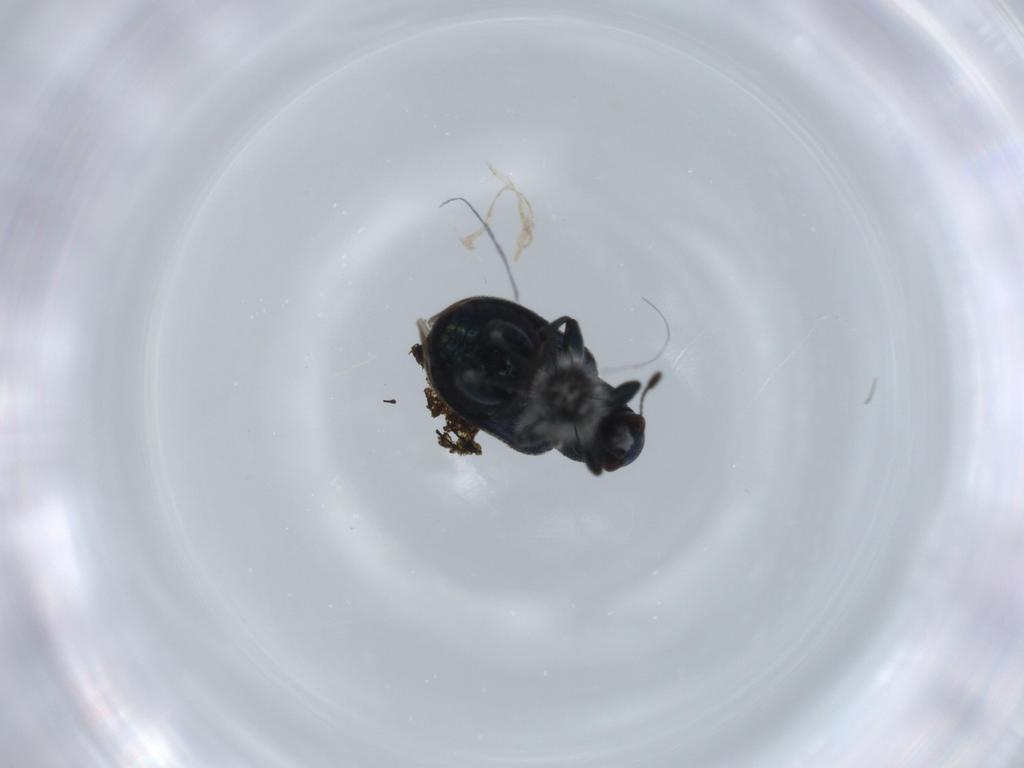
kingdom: Animalia
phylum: Arthropoda
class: Insecta
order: Coleoptera
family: Attelabidae
